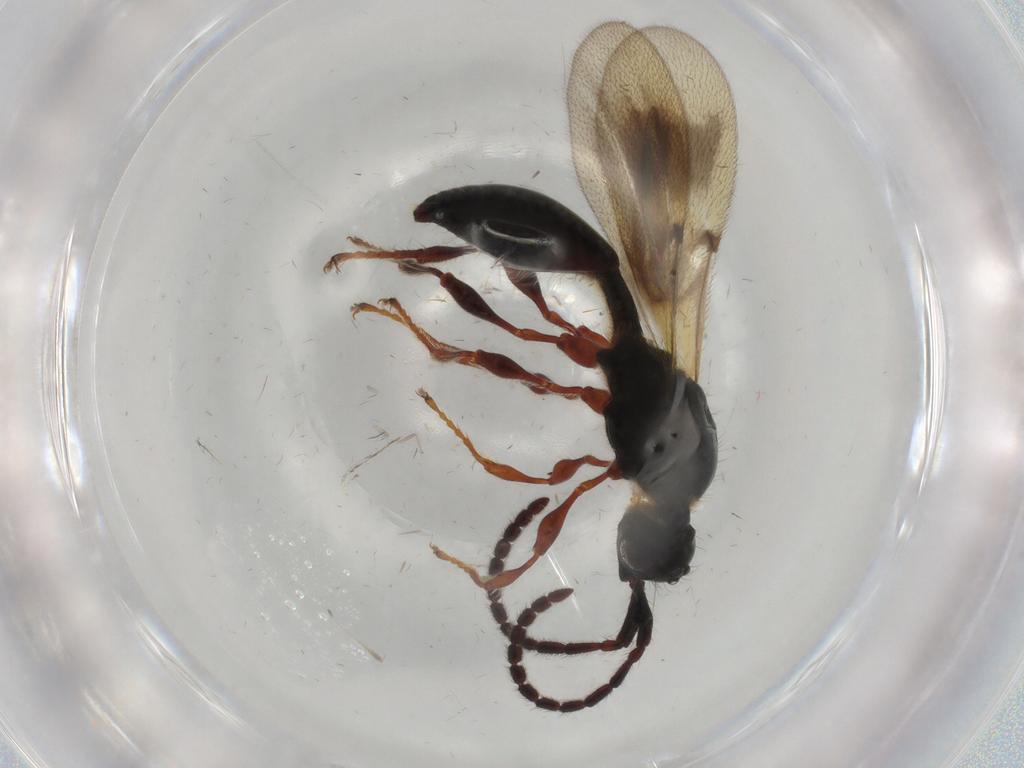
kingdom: Animalia
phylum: Arthropoda
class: Insecta
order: Hymenoptera
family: Diapriidae
